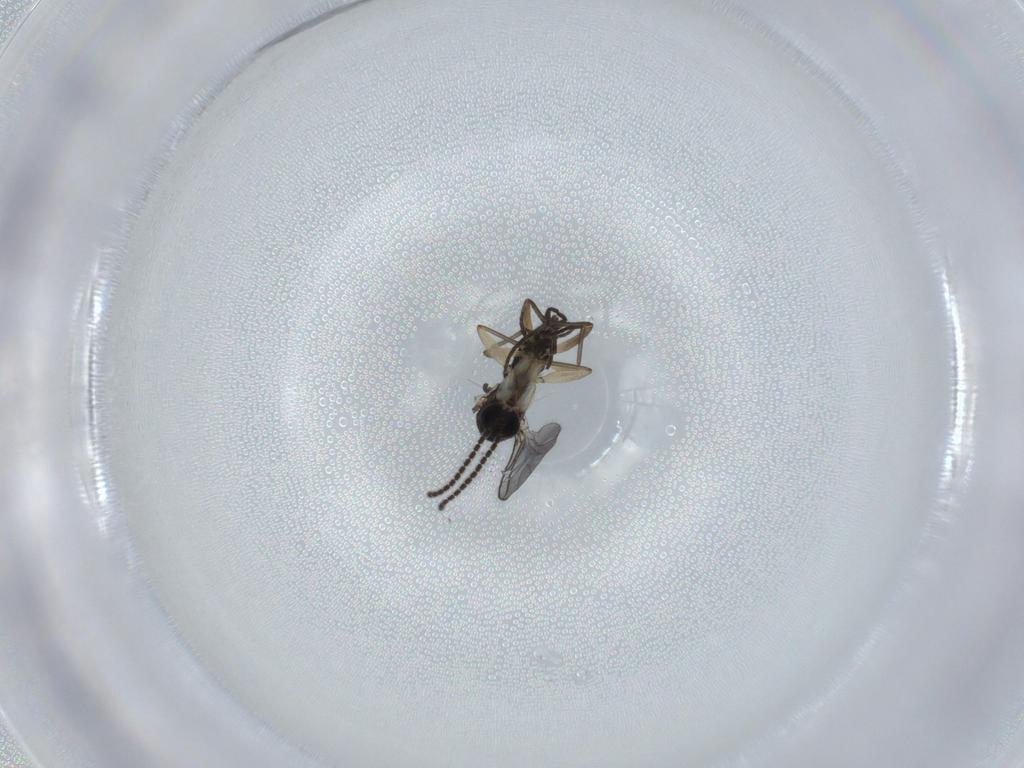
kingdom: Animalia
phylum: Arthropoda
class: Insecta
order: Diptera
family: Sciaridae
